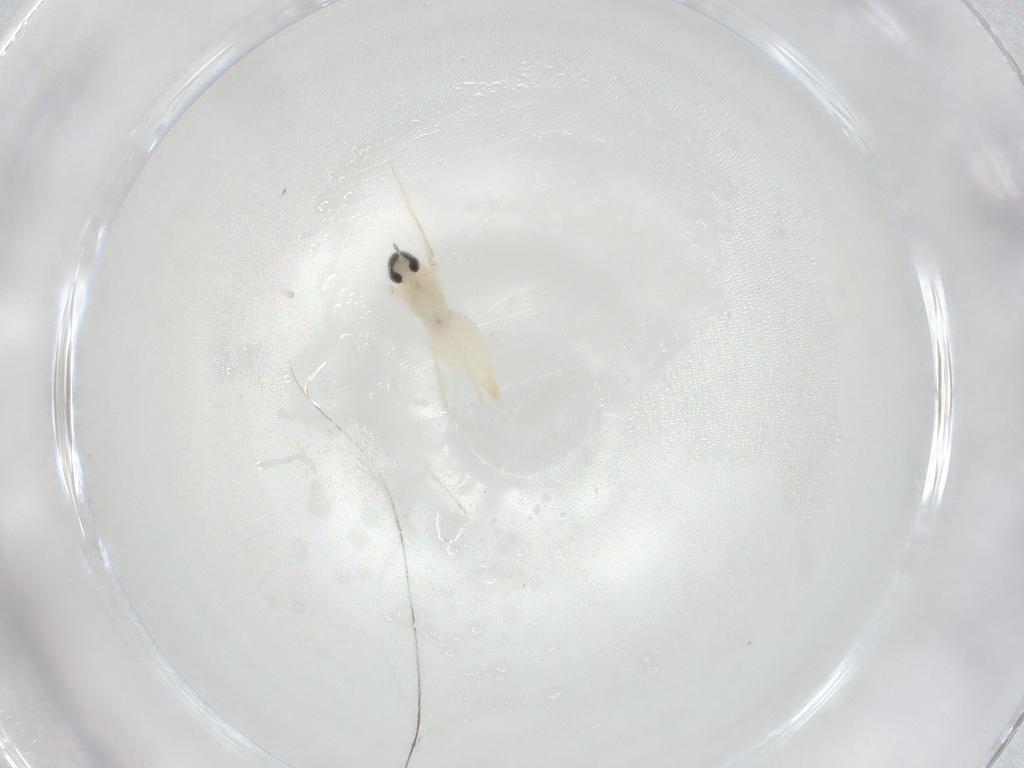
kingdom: Animalia
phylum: Arthropoda
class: Insecta
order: Diptera
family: Cecidomyiidae
